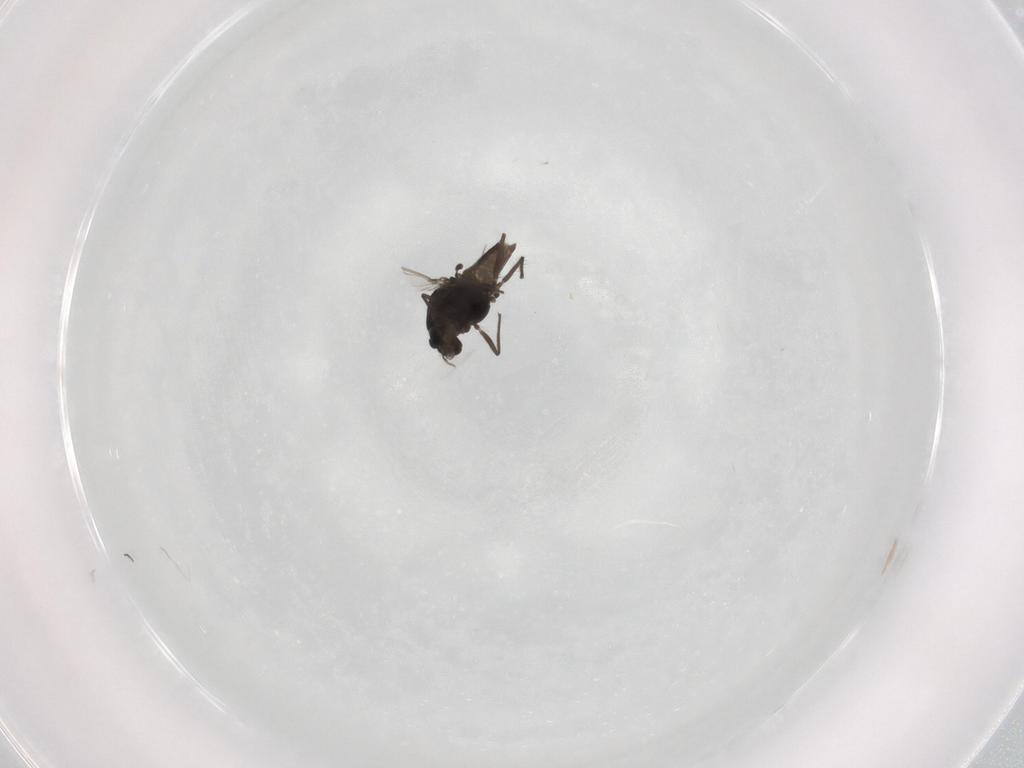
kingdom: Animalia
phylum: Arthropoda
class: Insecta
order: Diptera
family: Chironomidae
